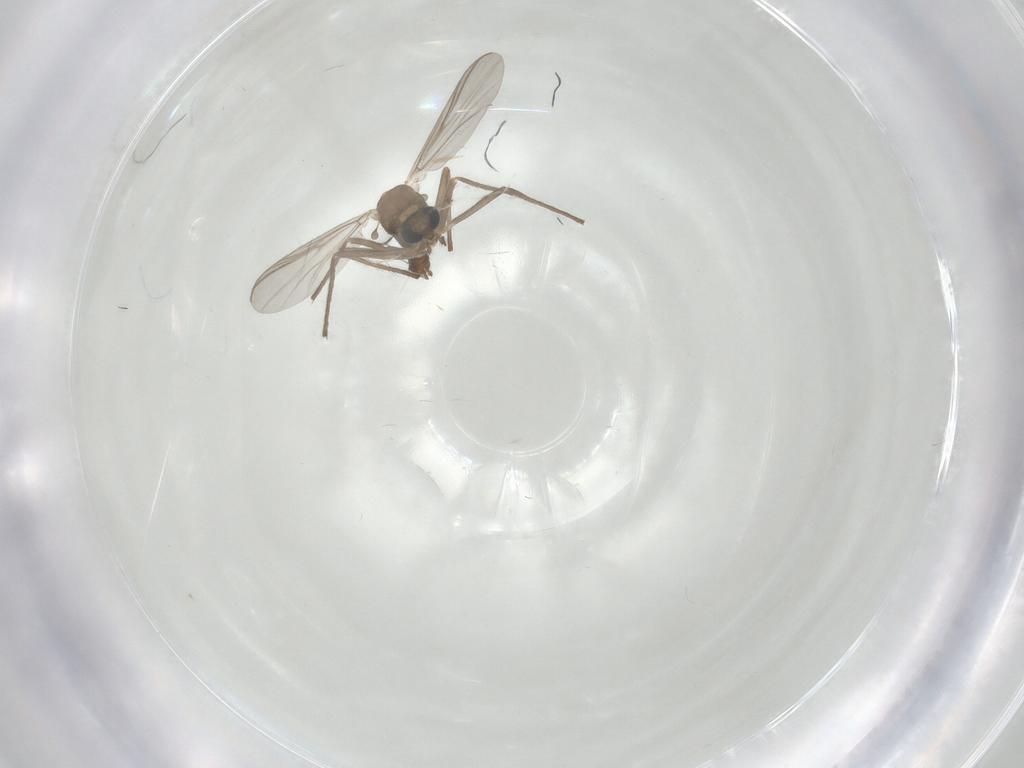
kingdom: Animalia
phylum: Arthropoda
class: Insecta
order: Diptera
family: Chironomidae
